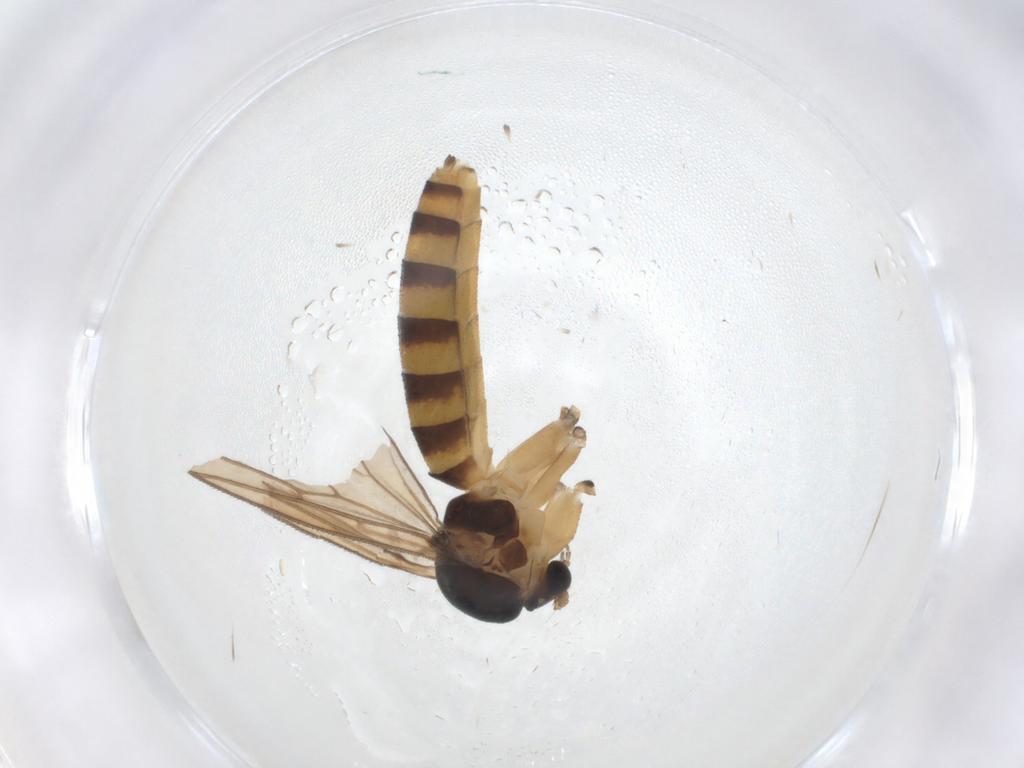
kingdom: Animalia
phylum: Arthropoda
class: Insecta
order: Diptera
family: Mycetophilidae
